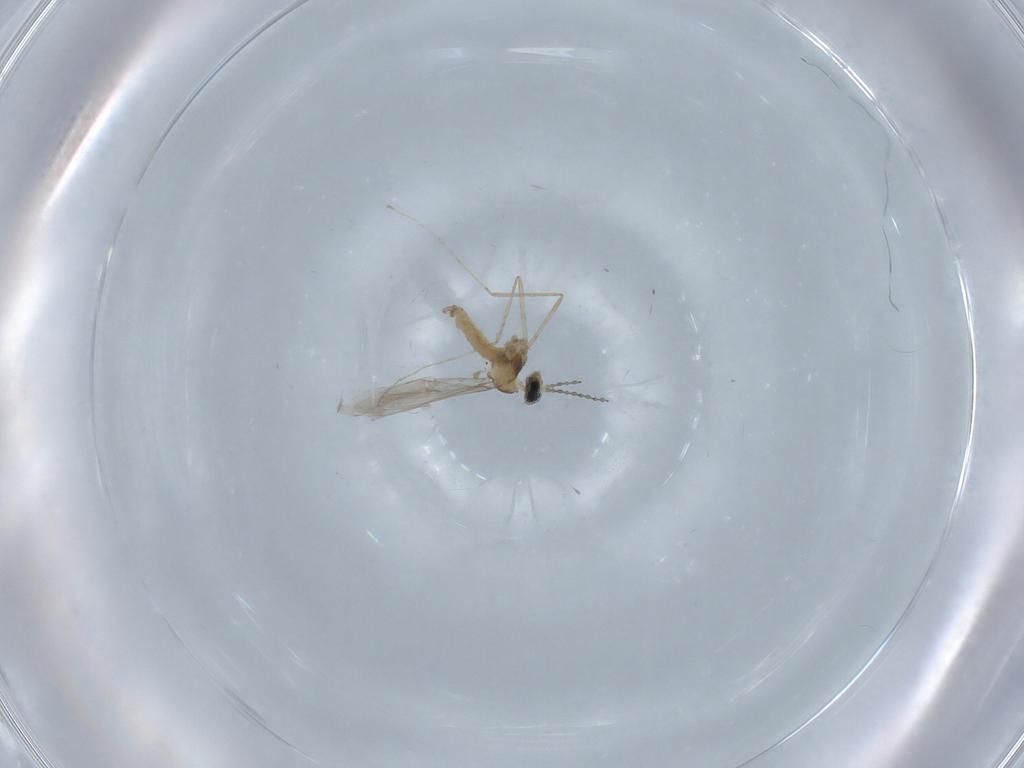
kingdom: Animalia
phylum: Arthropoda
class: Insecta
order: Diptera
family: Cecidomyiidae
